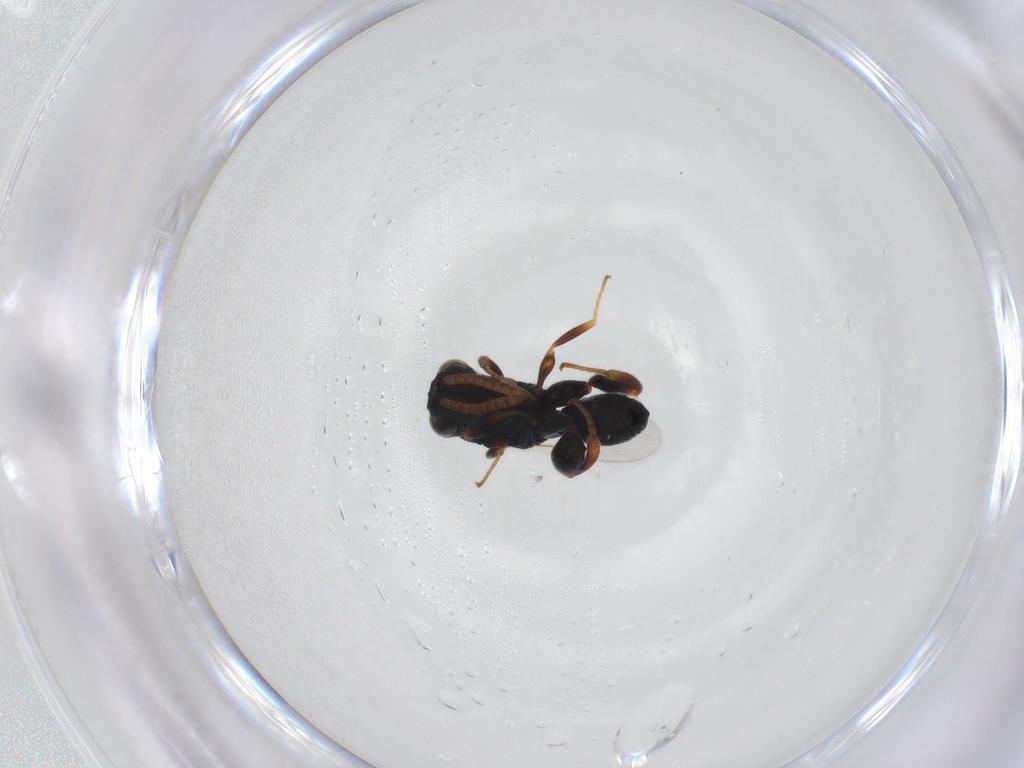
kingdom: Animalia
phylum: Arthropoda
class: Insecta
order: Hymenoptera
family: Chalcididae
